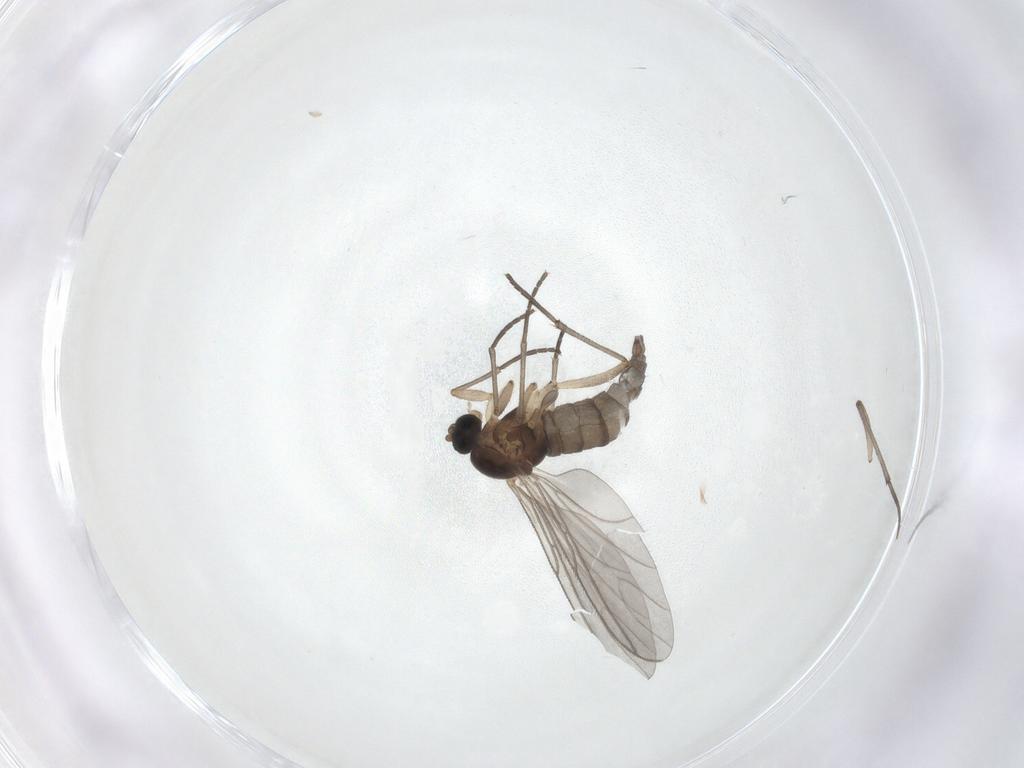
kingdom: Animalia
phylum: Arthropoda
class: Insecta
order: Diptera
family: Sciaridae
